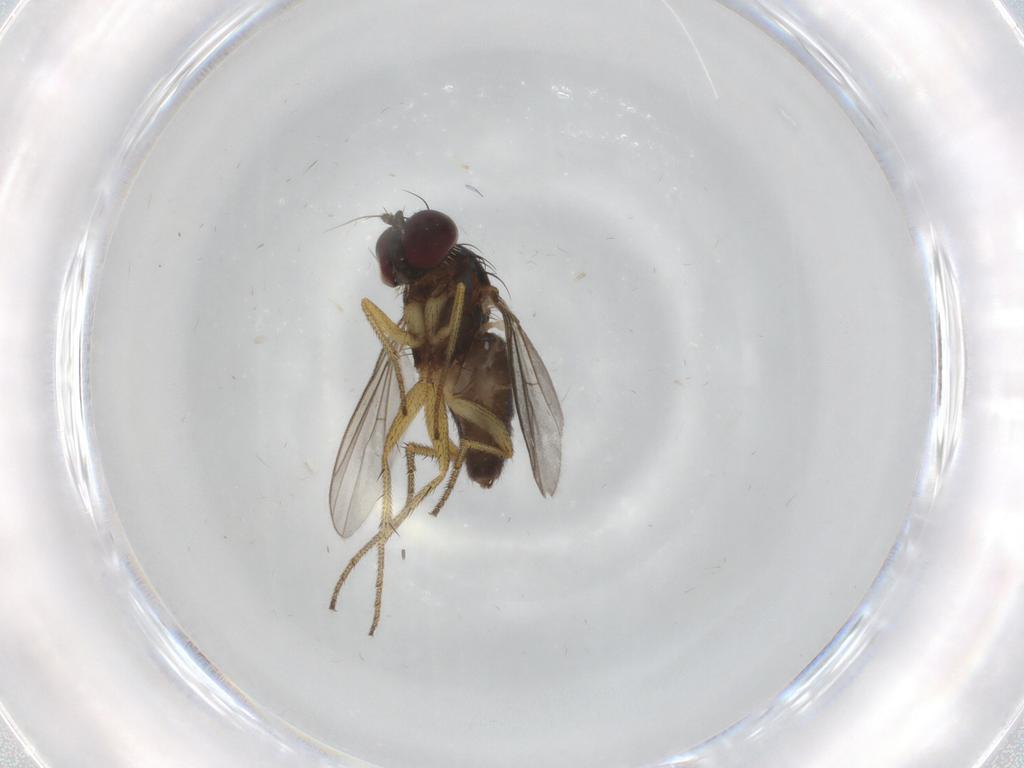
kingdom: Animalia
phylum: Arthropoda
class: Insecta
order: Diptera
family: Dolichopodidae
